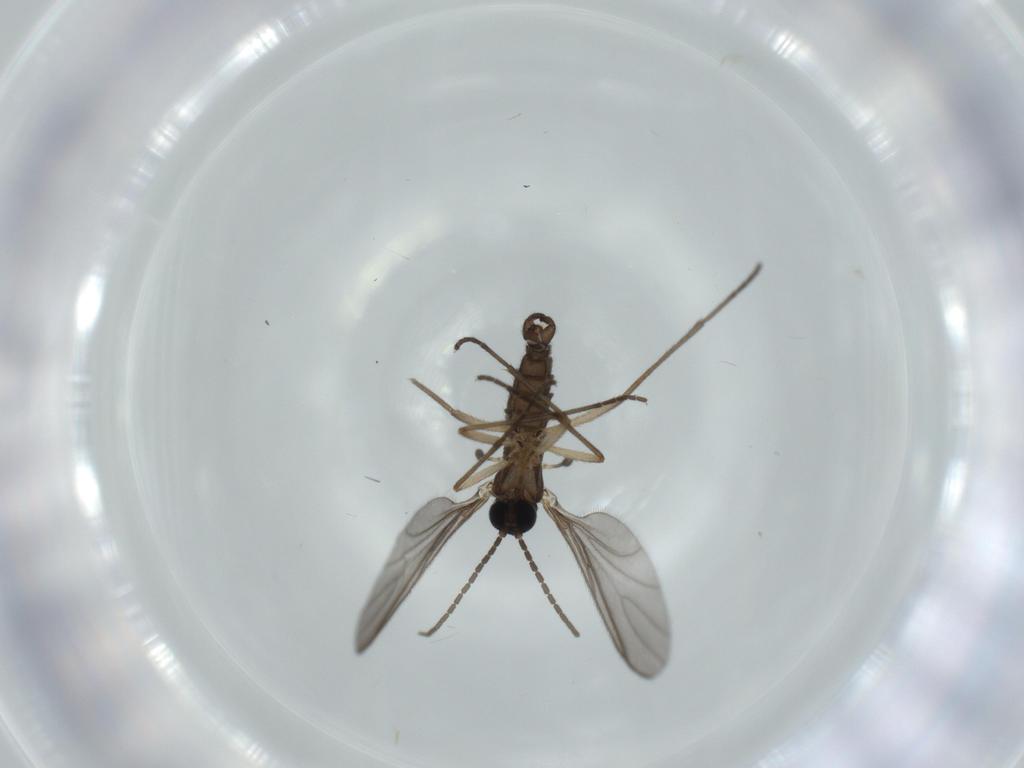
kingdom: Animalia
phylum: Arthropoda
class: Insecta
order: Diptera
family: Sciaridae
